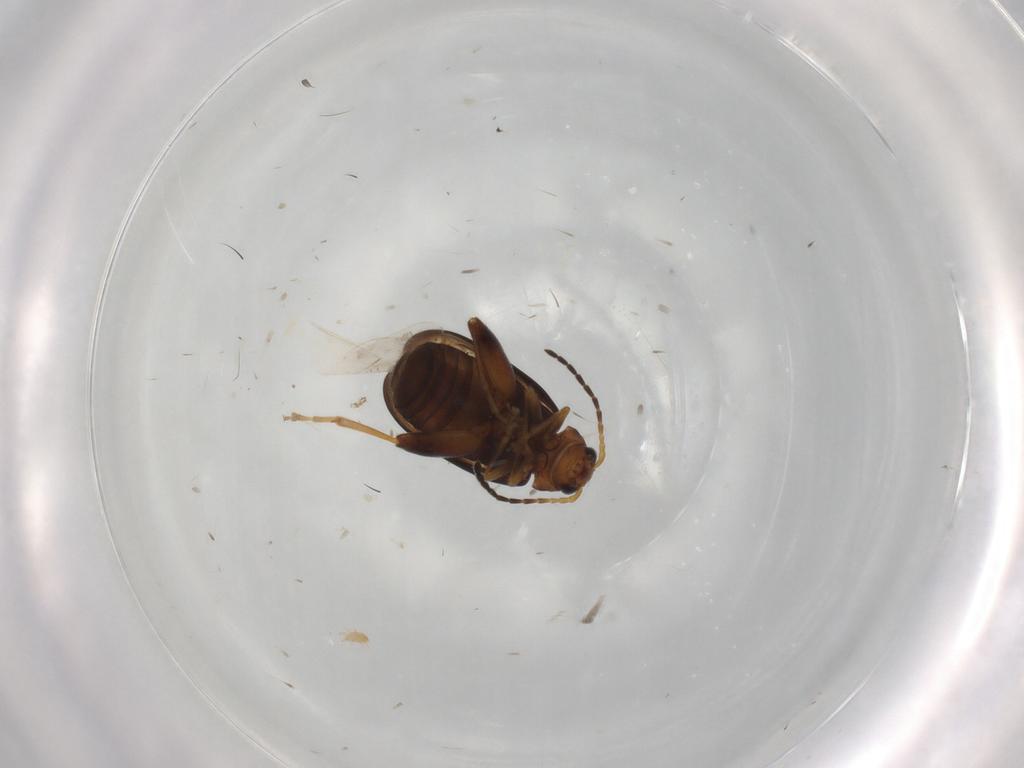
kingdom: Animalia
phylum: Arthropoda
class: Insecta
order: Coleoptera
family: Chrysomelidae
